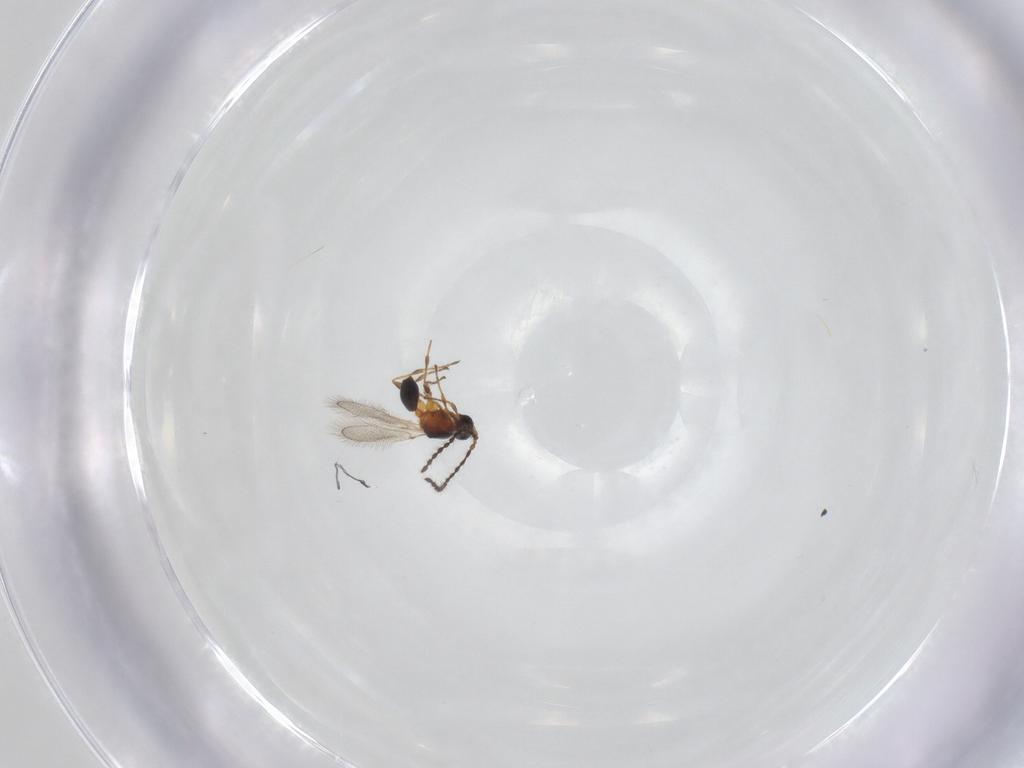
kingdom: Animalia
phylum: Arthropoda
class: Insecta
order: Hymenoptera
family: Diapriidae
